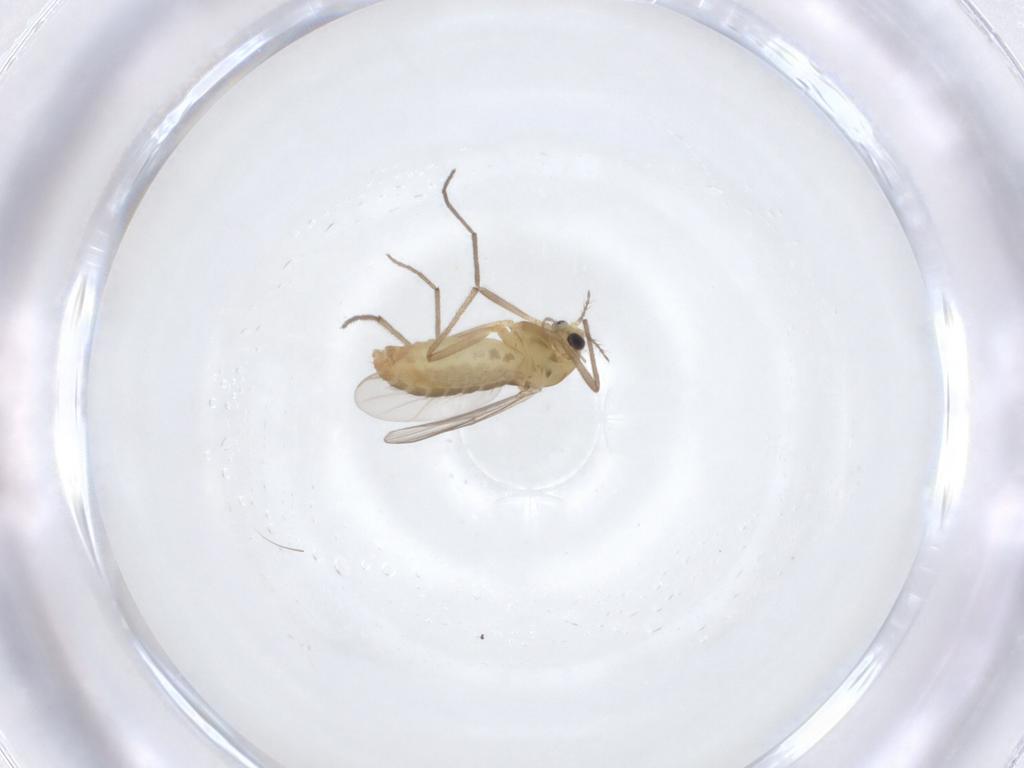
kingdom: Animalia
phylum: Arthropoda
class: Insecta
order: Diptera
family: Chironomidae
